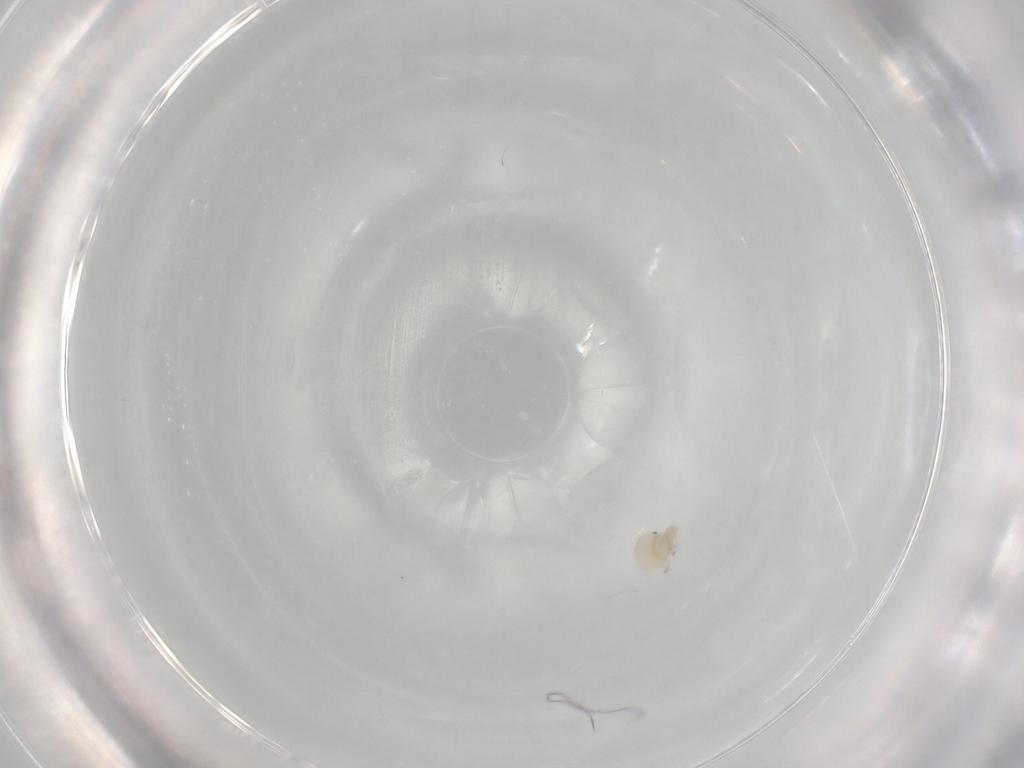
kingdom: Animalia
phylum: Arthropoda
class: Arachnida
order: Trombidiformes
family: Lebertiidae
